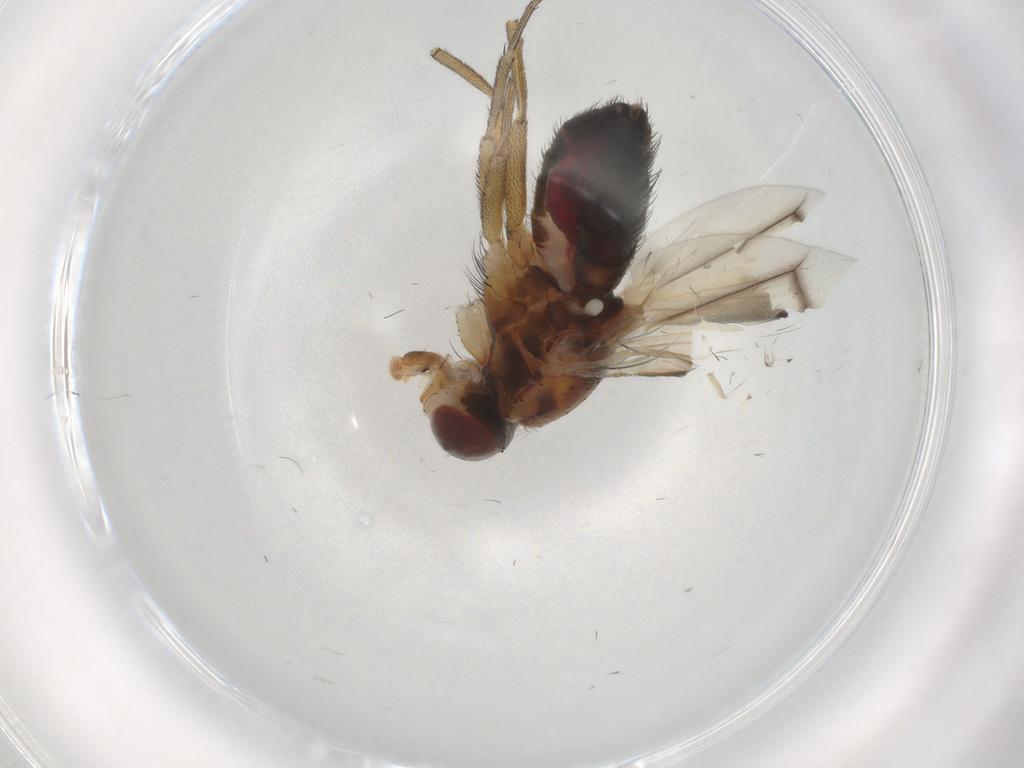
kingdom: Animalia
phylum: Arthropoda
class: Insecta
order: Diptera
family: Heleomyzidae
